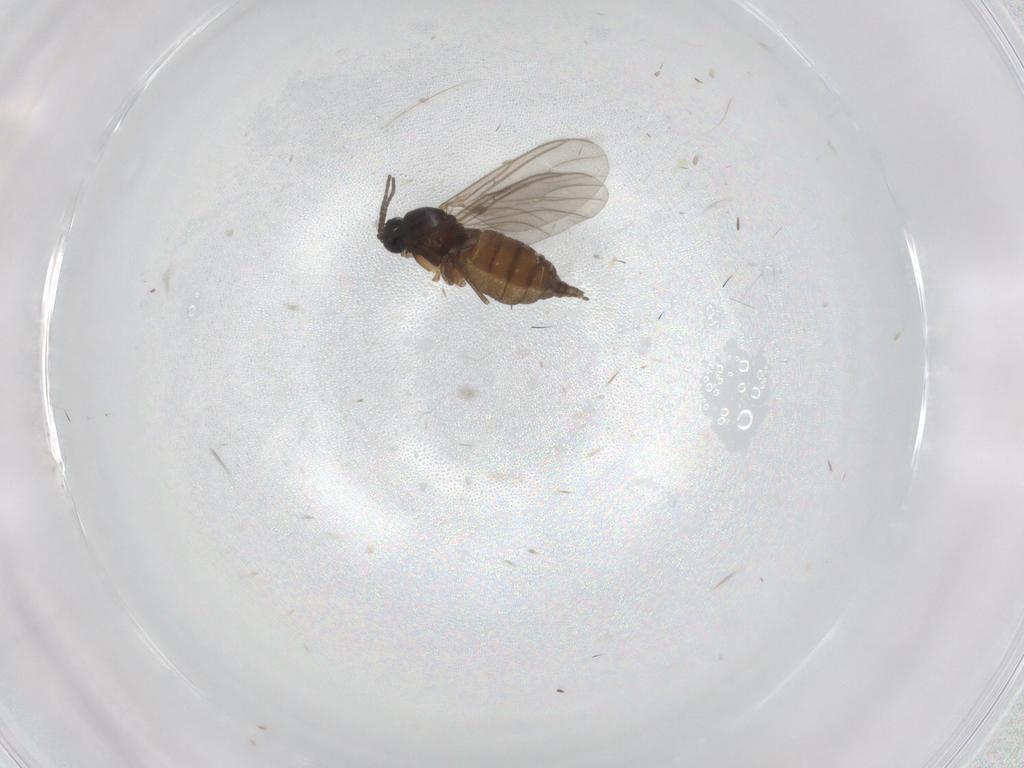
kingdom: Animalia
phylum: Arthropoda
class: Insecta
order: Diptera
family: Sciaridae
